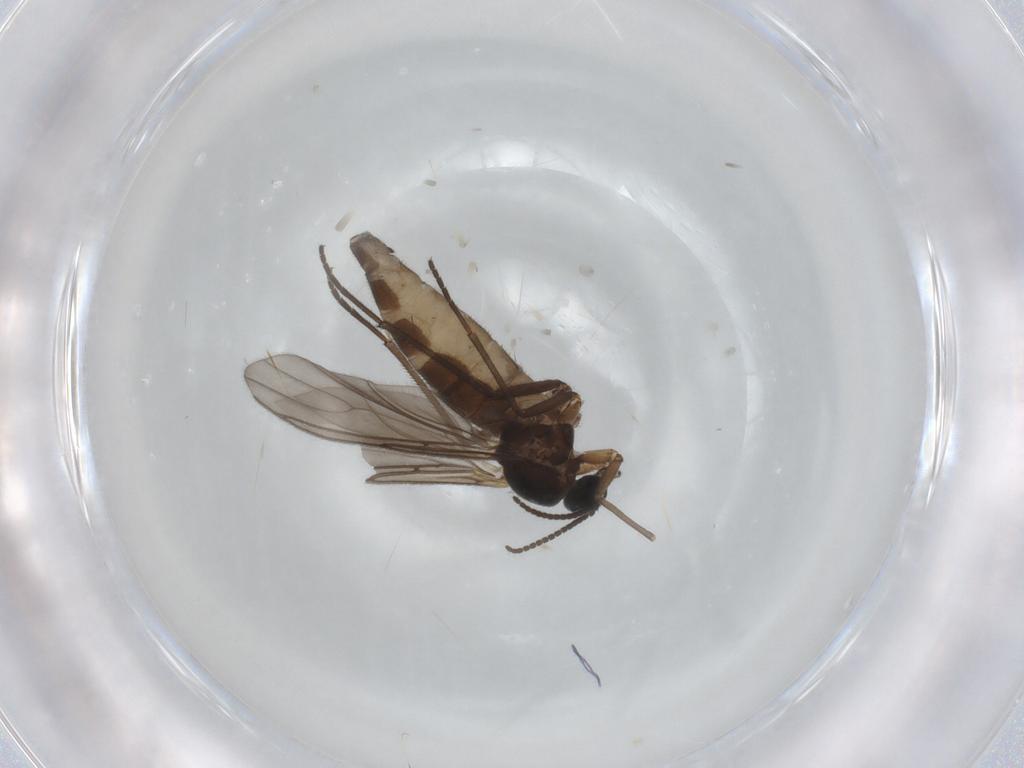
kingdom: Animalia
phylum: Arthropoda
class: Insecta
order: Diptera
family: Sciaridae
